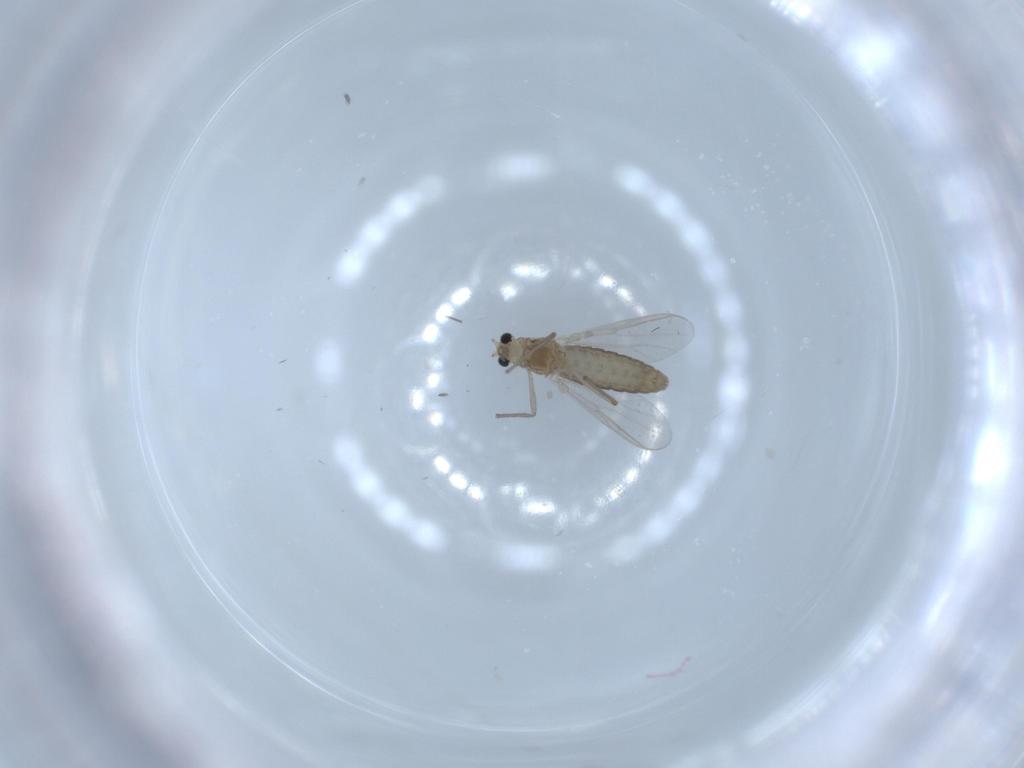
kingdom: Animalia
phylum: Arthropoda
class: Insecta
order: Diptera
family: Chironomidae
